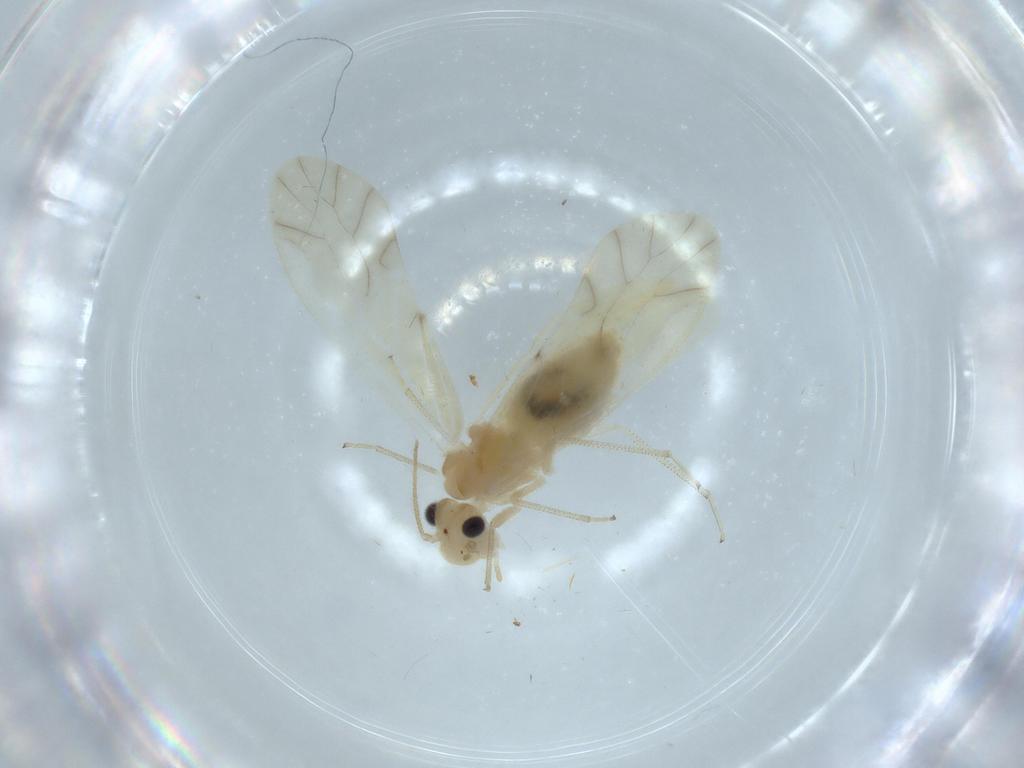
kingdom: Animalia
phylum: Arthropoda
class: Insecta
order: Psocodea
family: Caeciliusidae
